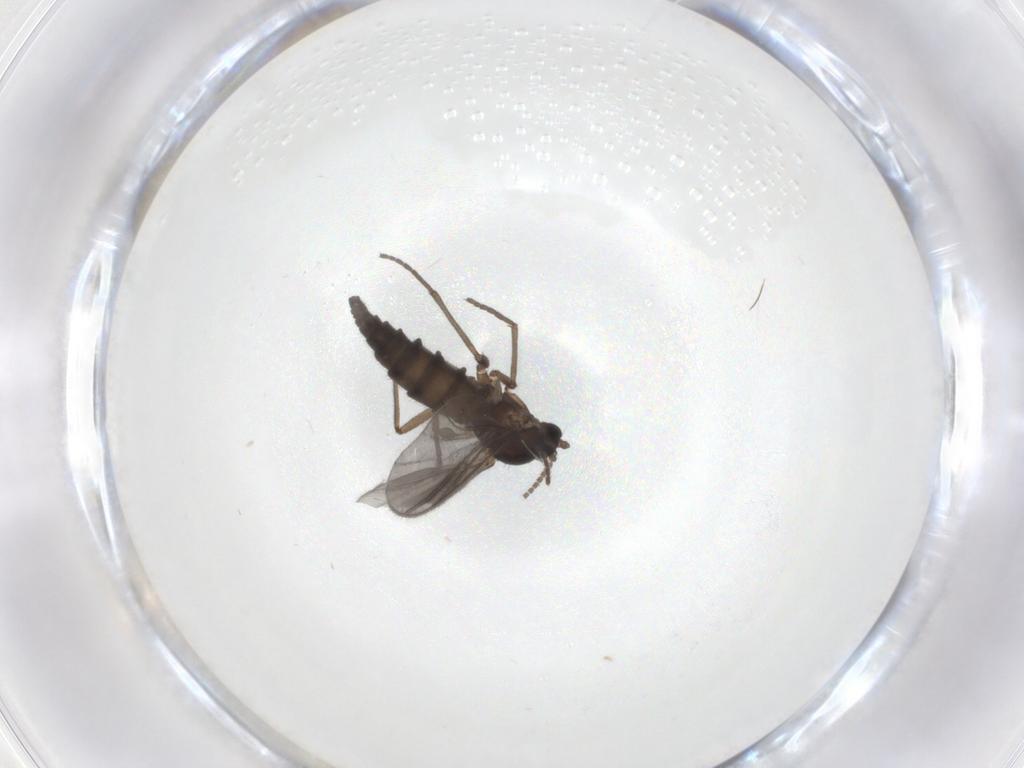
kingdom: Animalia
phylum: Arthropoda
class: Insecta
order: Diptera
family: Sciaridae
